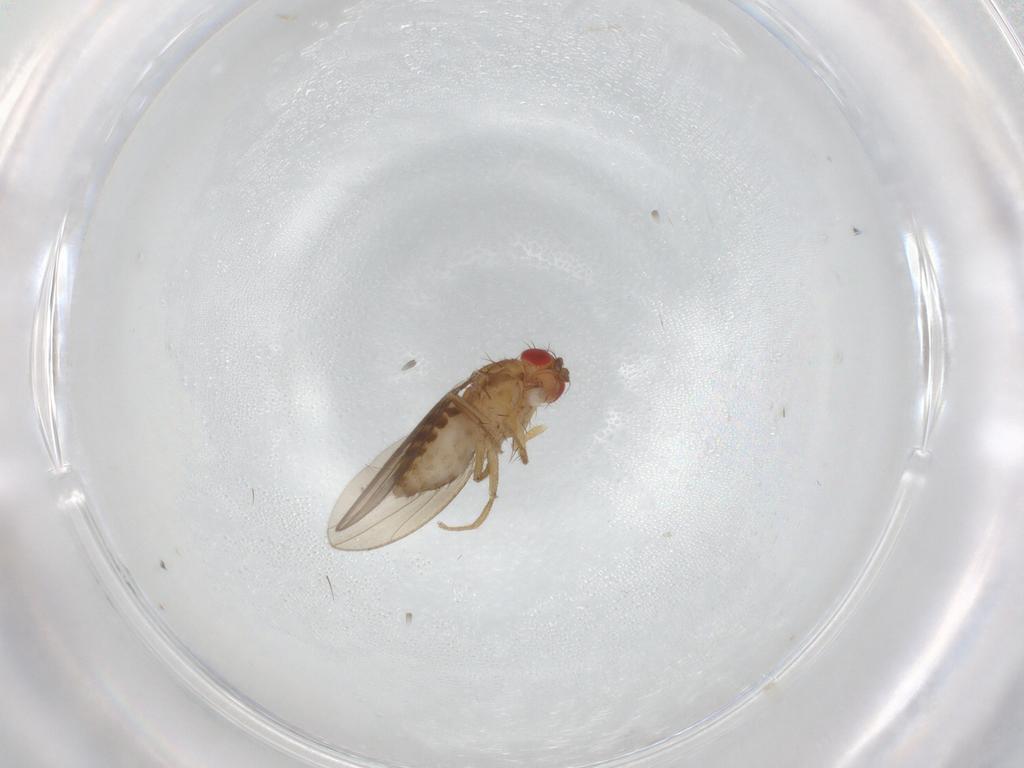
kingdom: Animalia
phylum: Arthropoda
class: Insecta
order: Diptera
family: Drosophilidae
